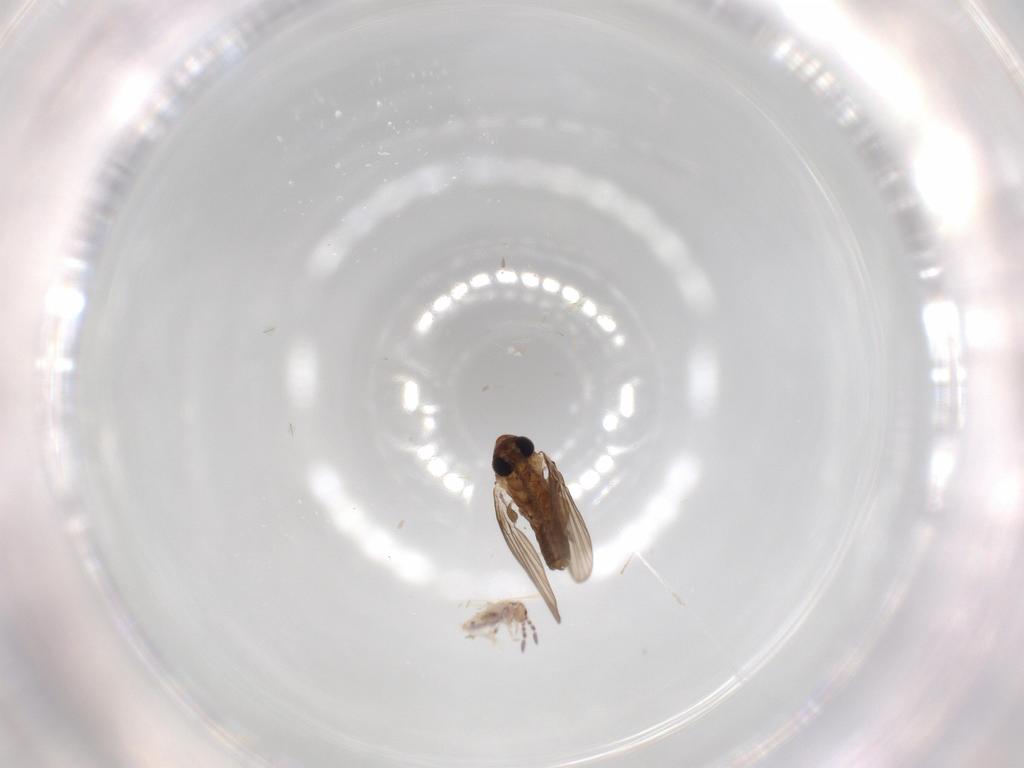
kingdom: Animalia
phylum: Arthropoda
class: Collembola
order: Entomobryomorpha
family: Entomobryidae
